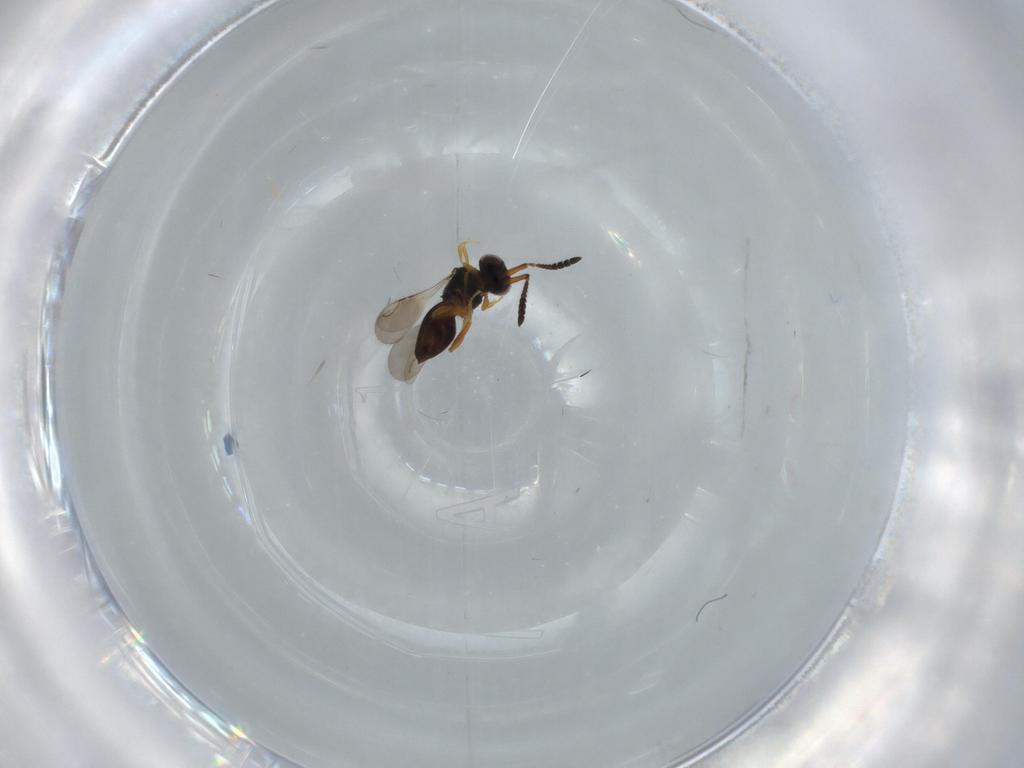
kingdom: Animalia
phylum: Arthropoda
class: Insecta
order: Hymenoptera
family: Ceraphronidae
